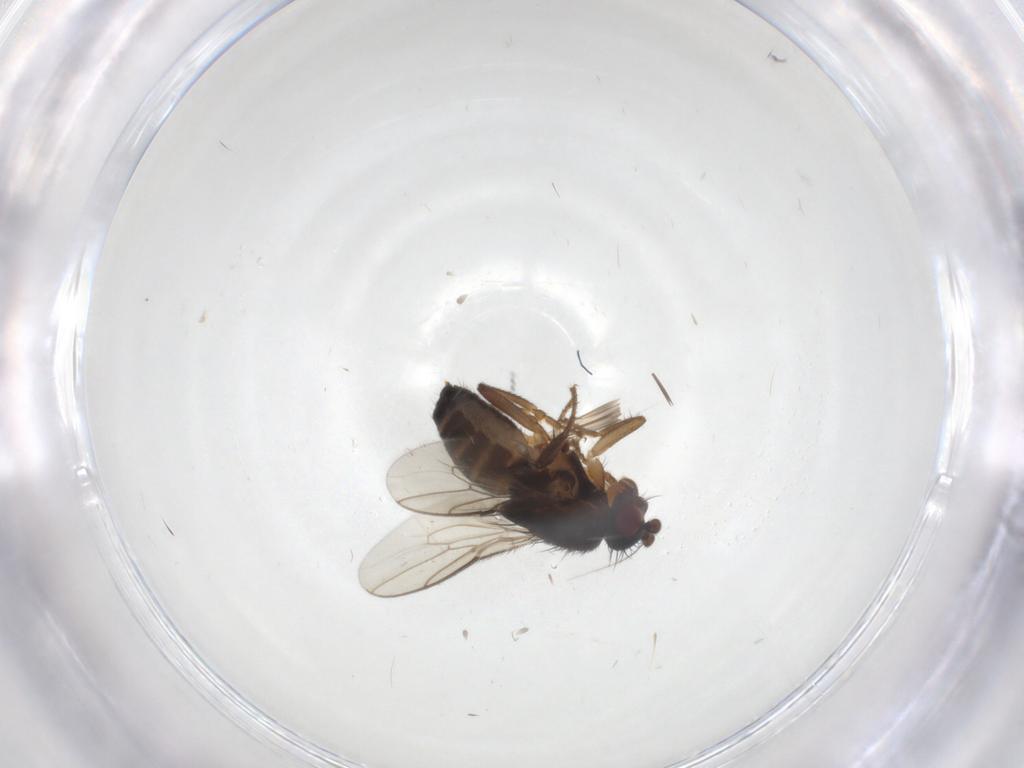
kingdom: Animalia
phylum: Arthropoda
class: Insecta
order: Diptera
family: Sphaeroceridae
